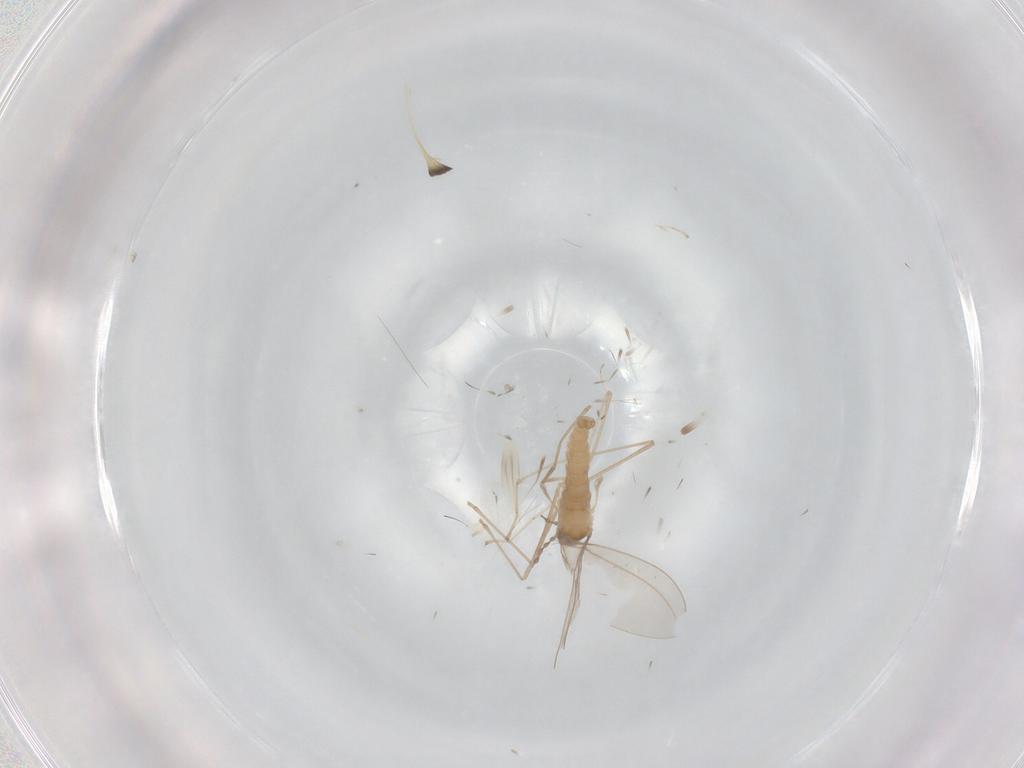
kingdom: Animalia
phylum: Arthropoda
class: Insecta
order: Diptera
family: Cecidomyiidae
